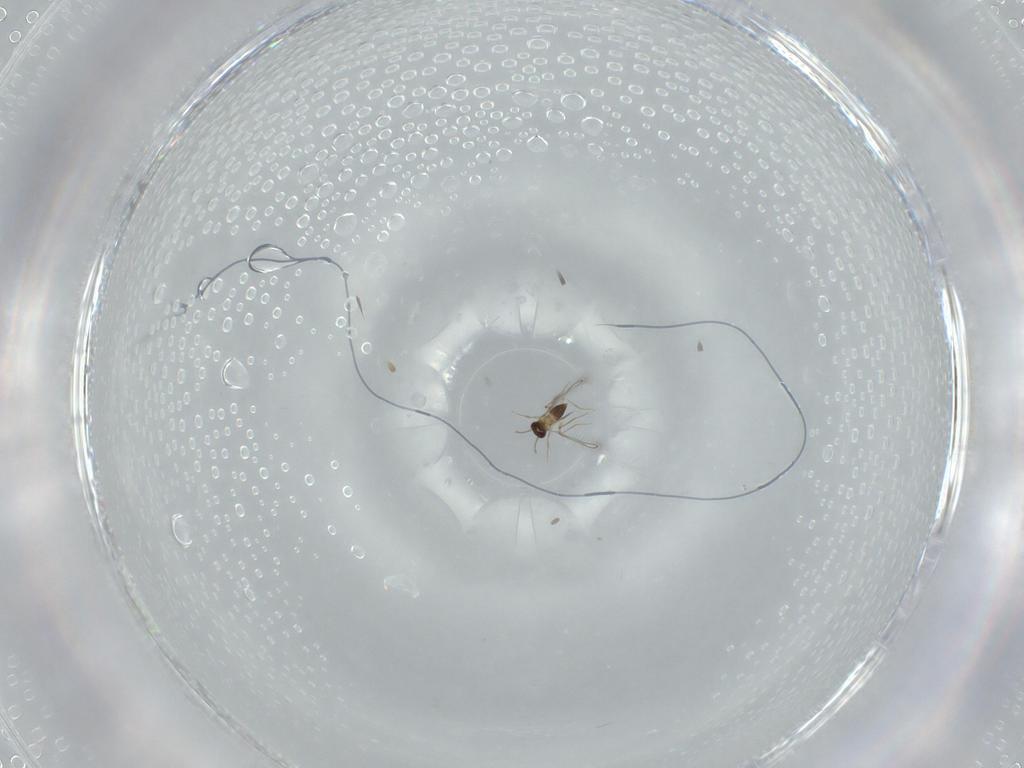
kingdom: Animalia
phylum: Arthropoda
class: Insecta
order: Hymenoptera
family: Mymaridae
